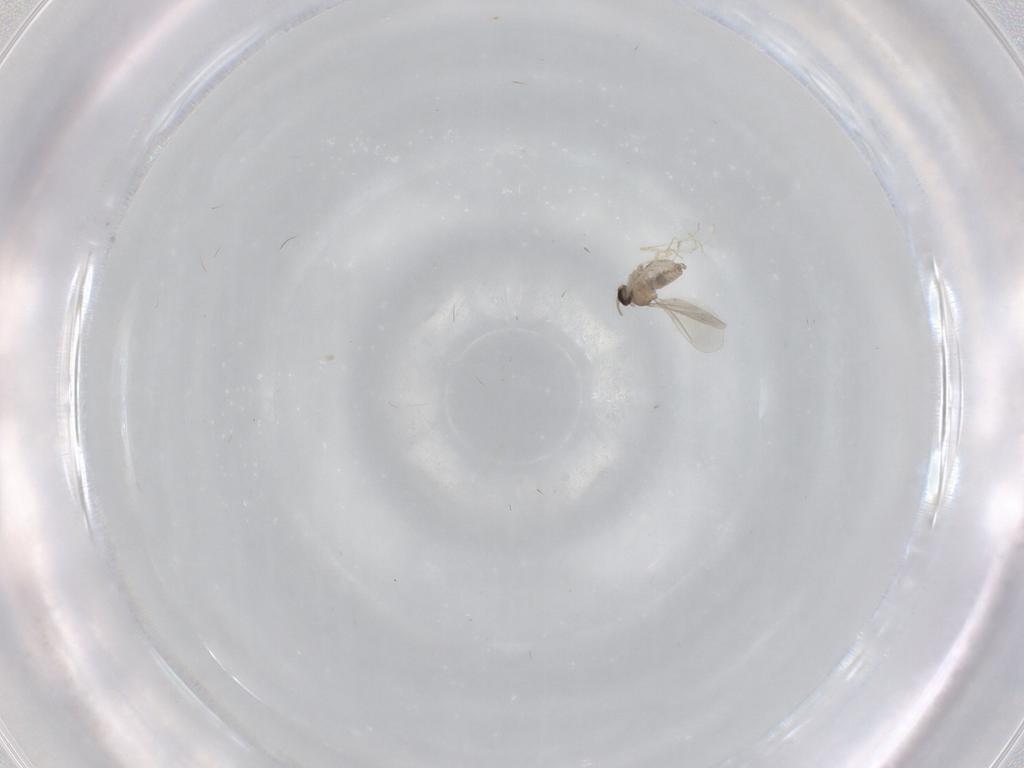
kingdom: Animalia
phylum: Arthropoda
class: Insecta
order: Diptera
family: Cecidomyiidae
